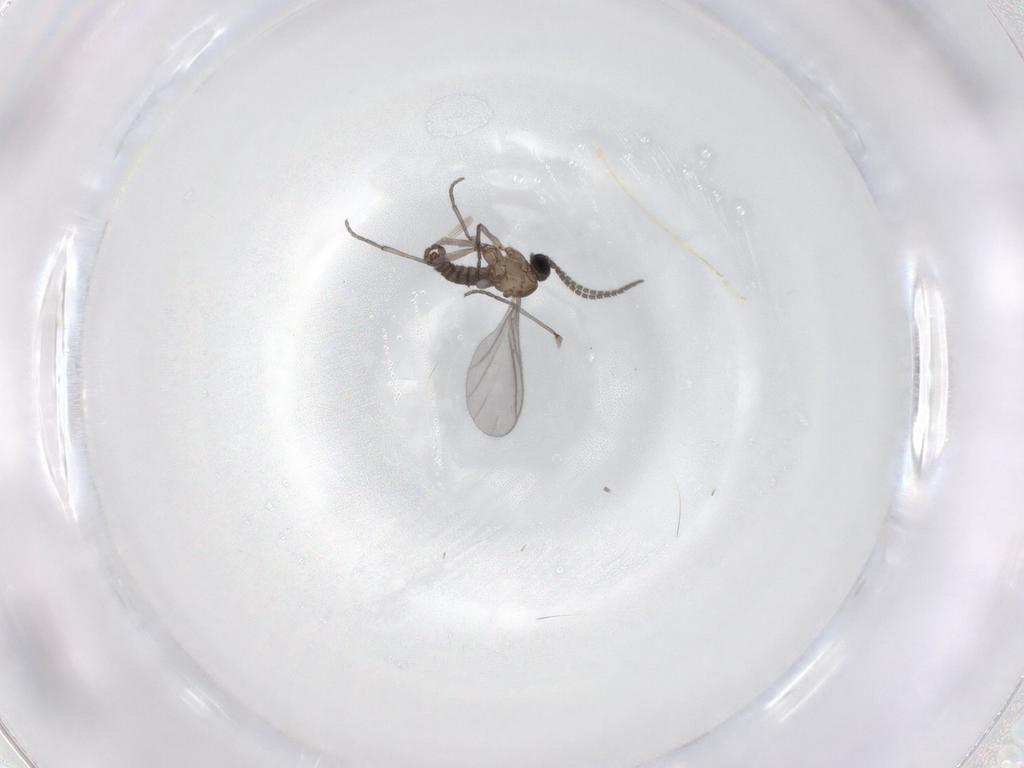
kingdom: Animalia
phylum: Arthropoda
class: Insecta
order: Diptera
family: Sciaridae
